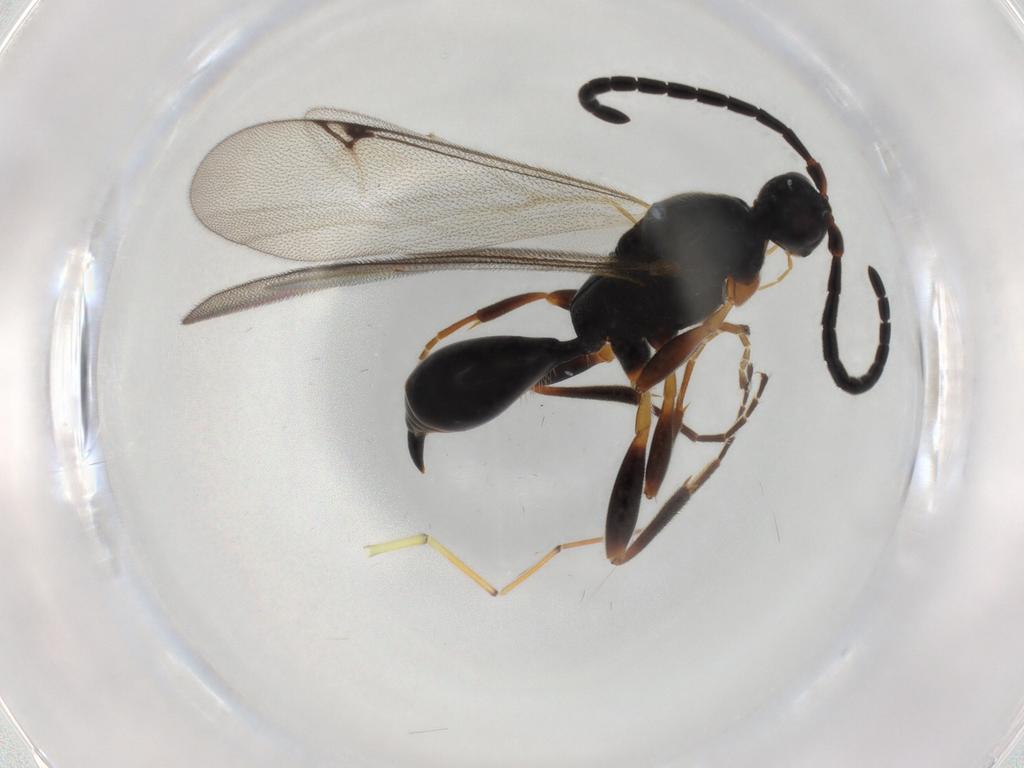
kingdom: Animalia
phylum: Arthropoda
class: Insecta
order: Hymenoptera
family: Proctotrupidae
